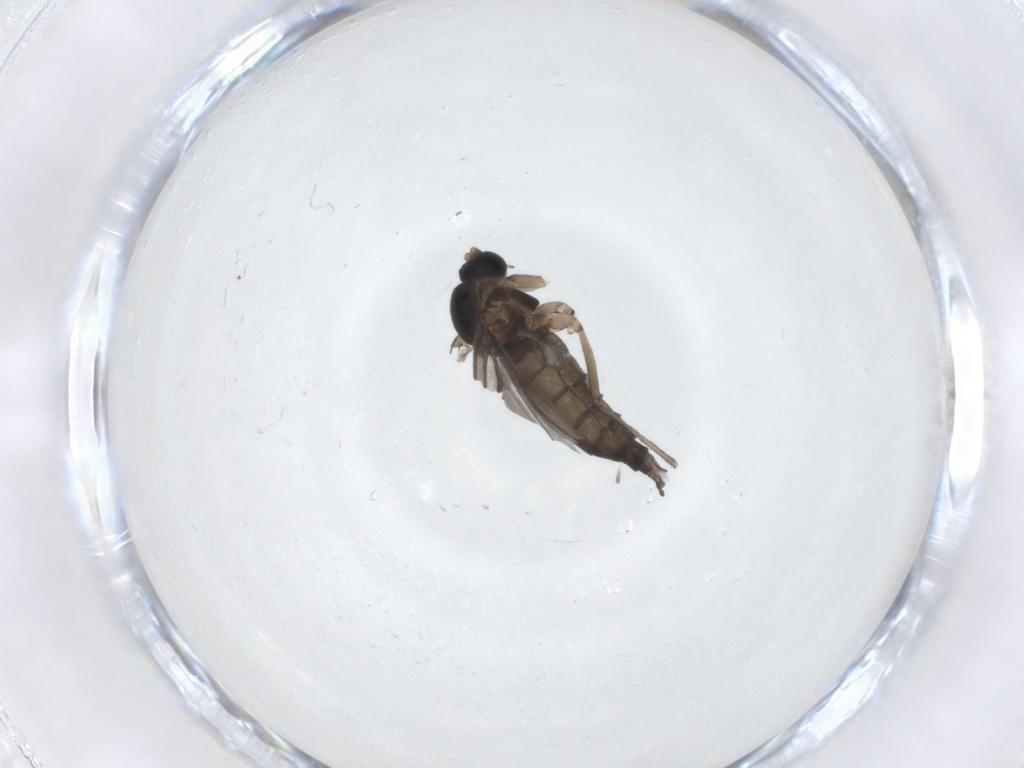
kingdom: Animalia
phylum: Arthropoda
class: Insecta
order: Diptera
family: Sciaridae
